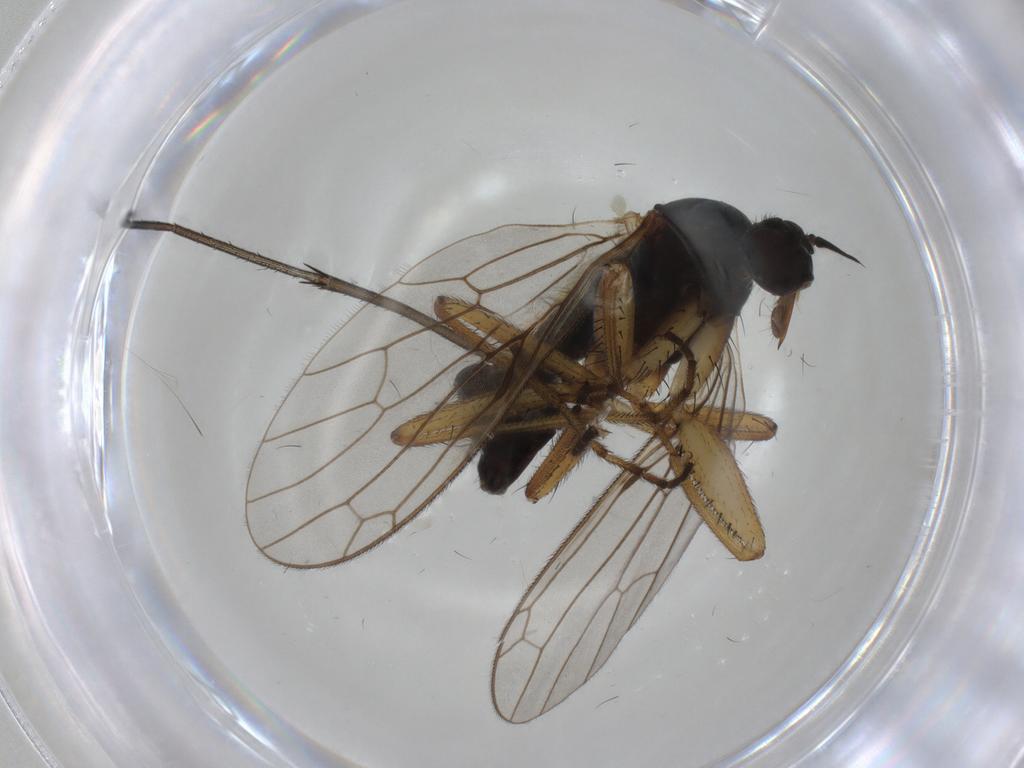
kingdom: Animalia
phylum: Arthropoda
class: Insecta
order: Diptera
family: Empididae
